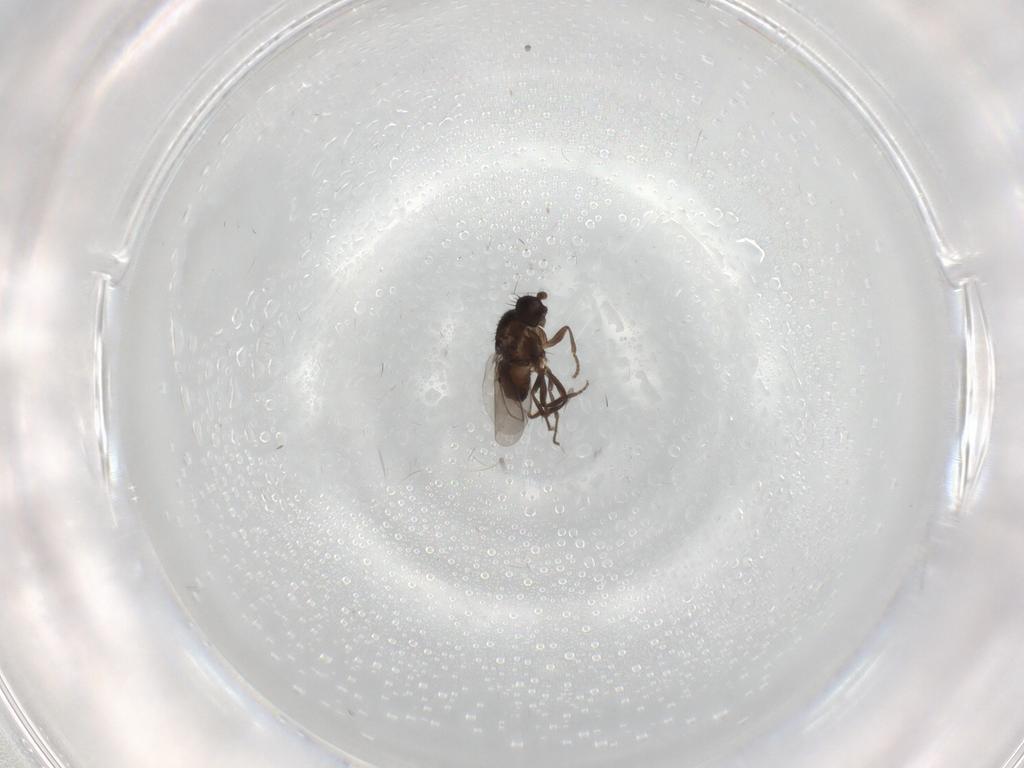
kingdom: Animalia
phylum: Arthropoda
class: Insecta
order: Diptera
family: Sphaeroceridae
